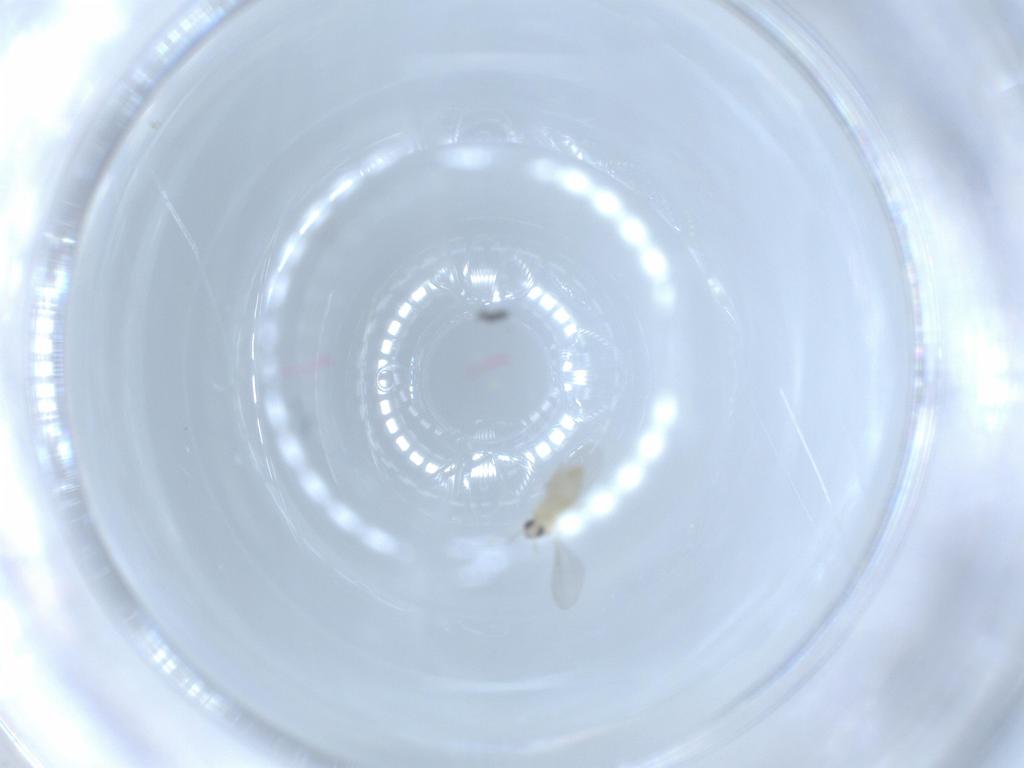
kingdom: Animalia
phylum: Arthropoda
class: Insecta
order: Diptera
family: Cecidomyiidae
